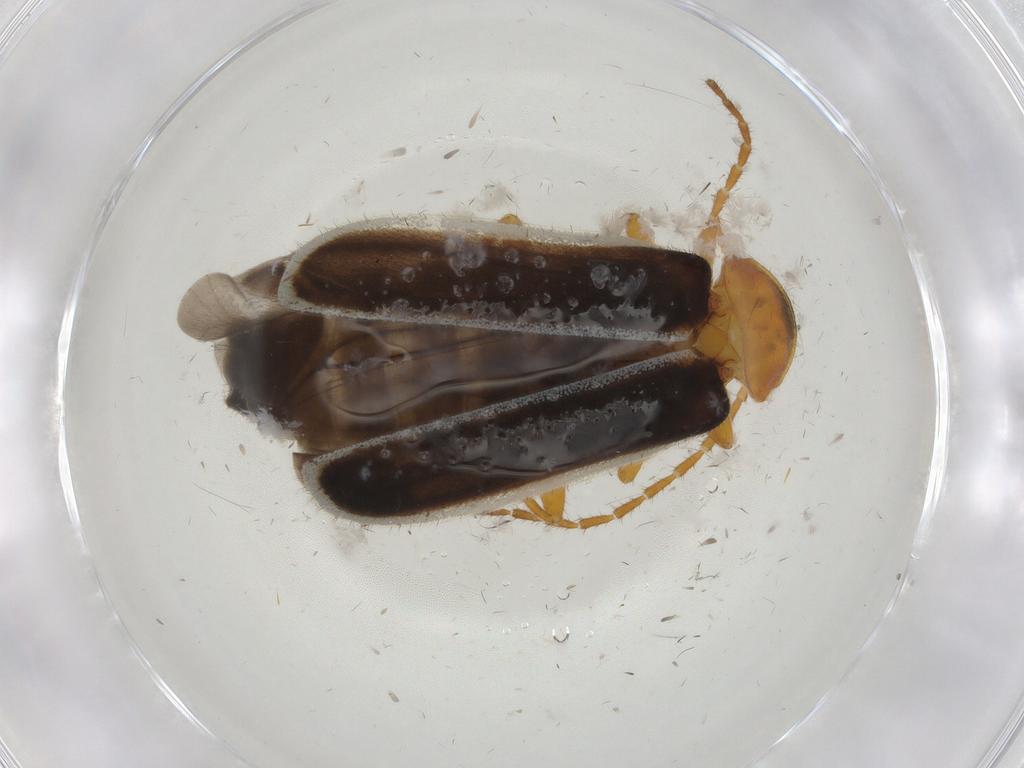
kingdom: Animalia
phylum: Arthropoda
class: Insecta
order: Coleoptera
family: Cantharidae
